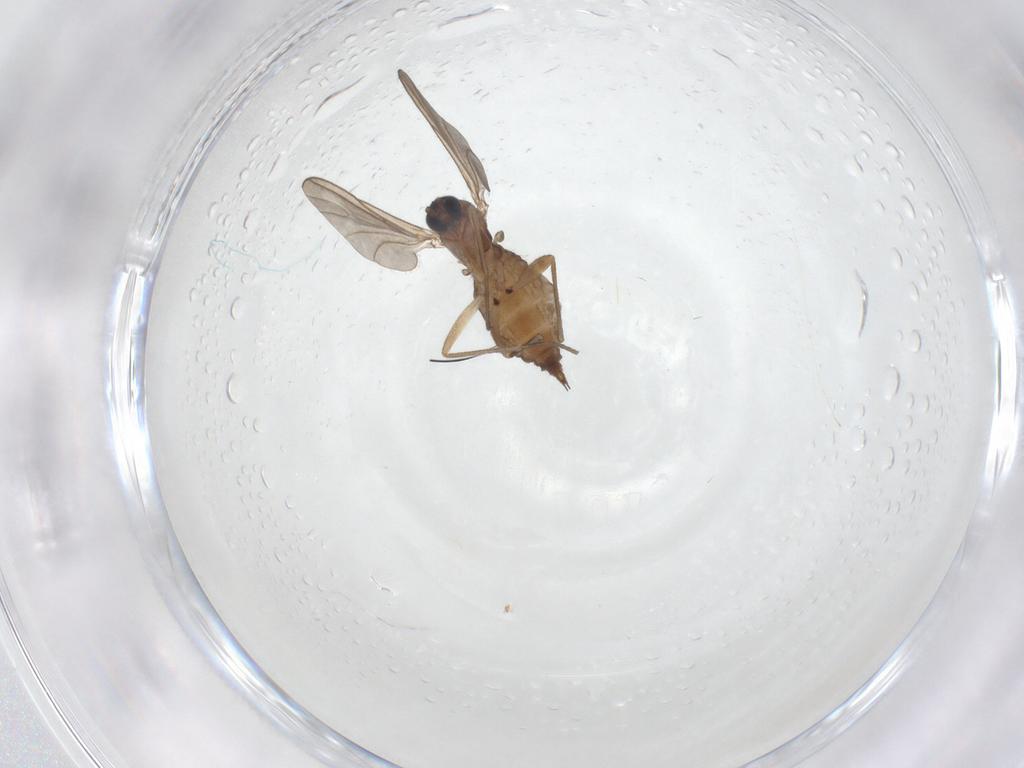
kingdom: Animalia
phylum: Arthropoda
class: Insecta
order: Diptera
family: Sciaridae
